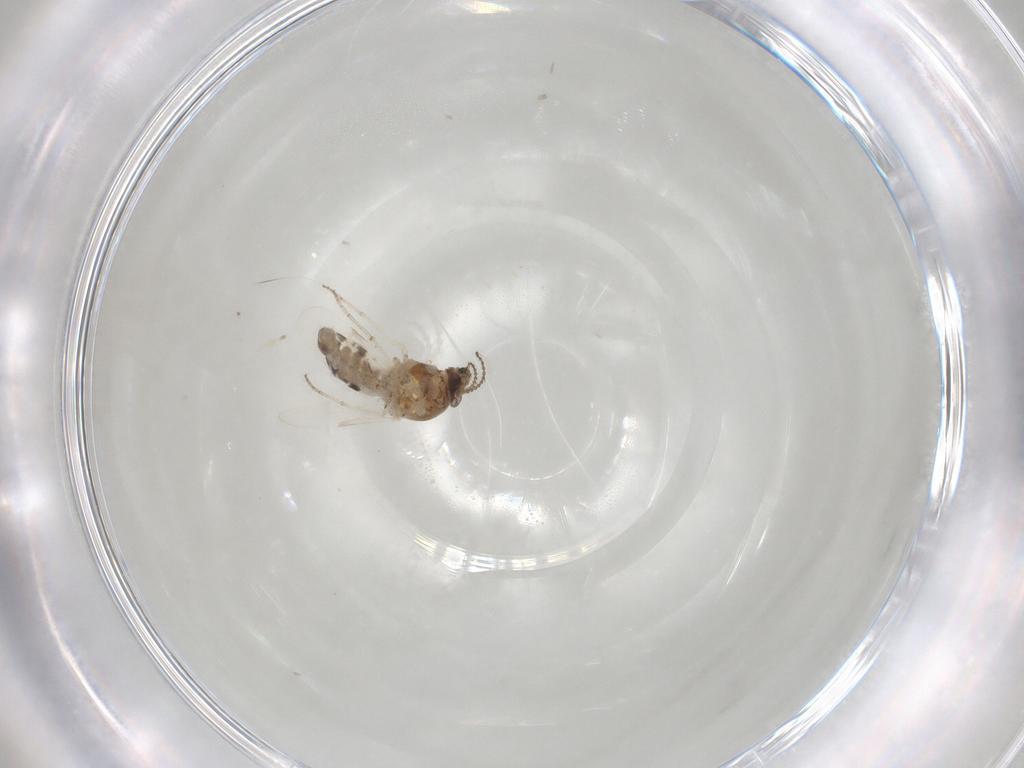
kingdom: Animalia
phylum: Arthropoda
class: Insecta
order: Diptera
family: Ceratopogonidae
